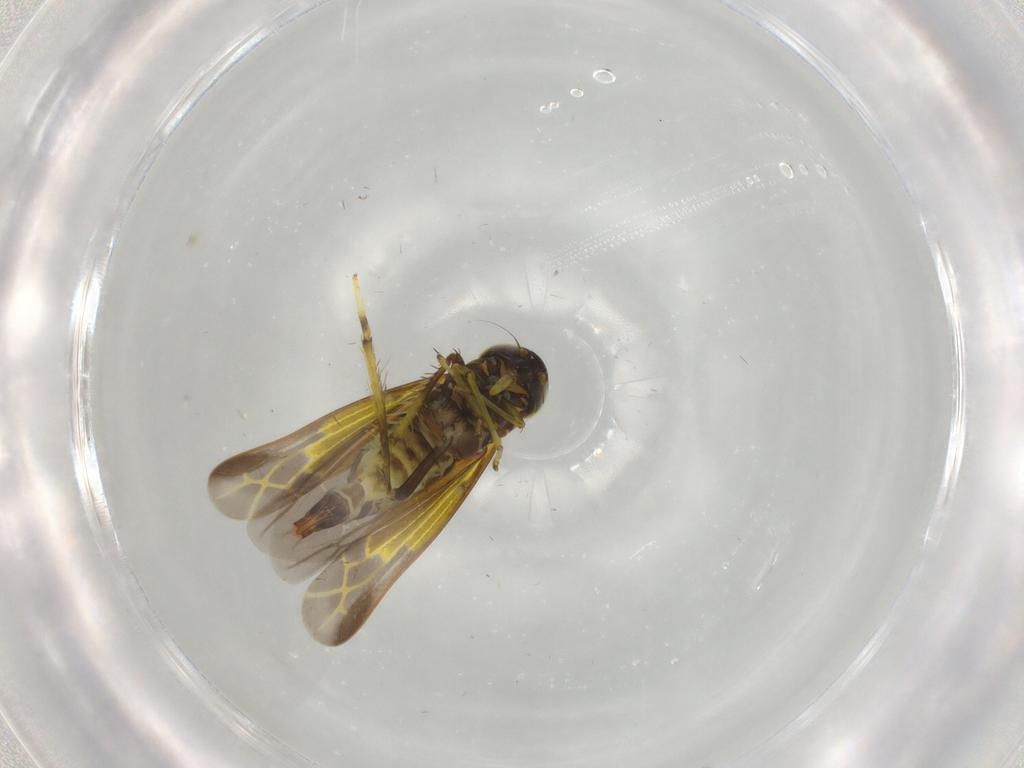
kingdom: Animalia
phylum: Arthropoda
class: Insecta
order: Hemiptera
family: Cicadellidae
